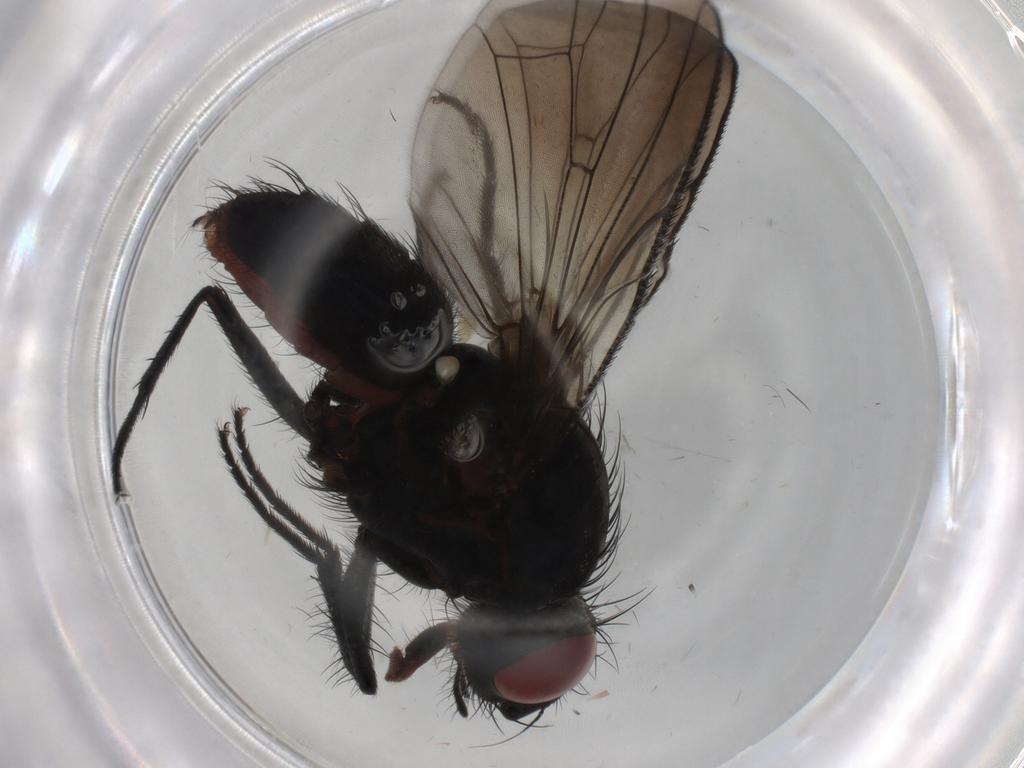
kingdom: Animalia
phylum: Arthropoda
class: Insecta
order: Diptera
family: Anthomyiidae
